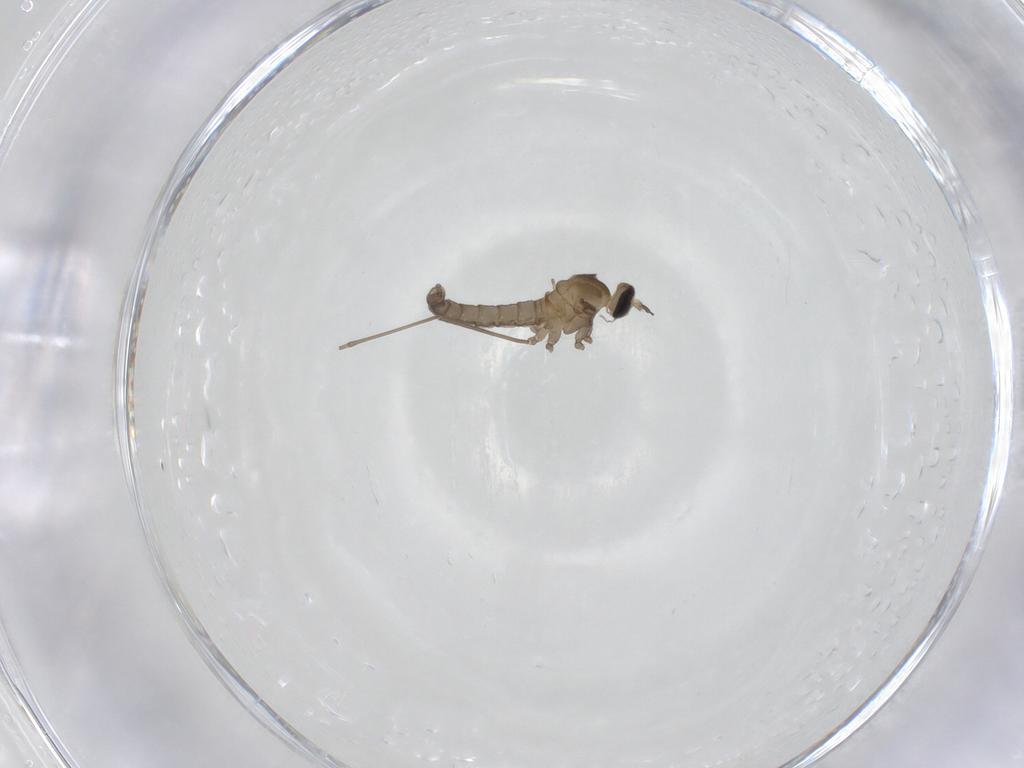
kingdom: Animalia
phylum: Arthropoda
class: Insecta
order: Diptera
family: Cecidomyiidae
